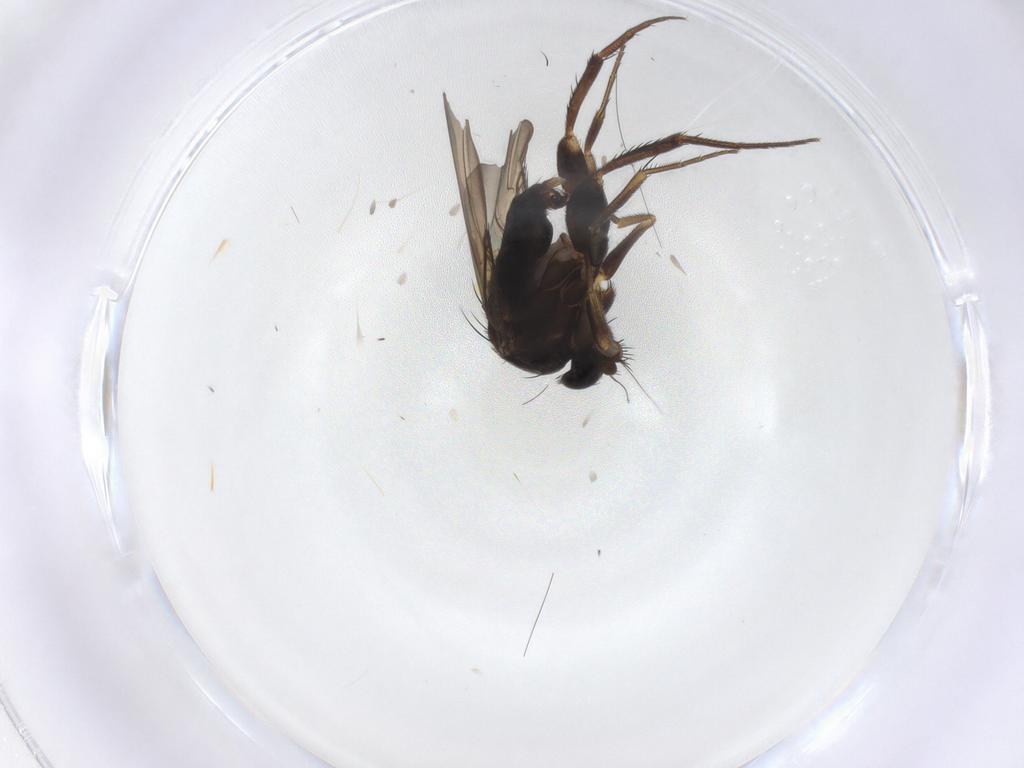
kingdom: Animalia
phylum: Arthropoda
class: Insecta
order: Diptera
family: Phoridae
